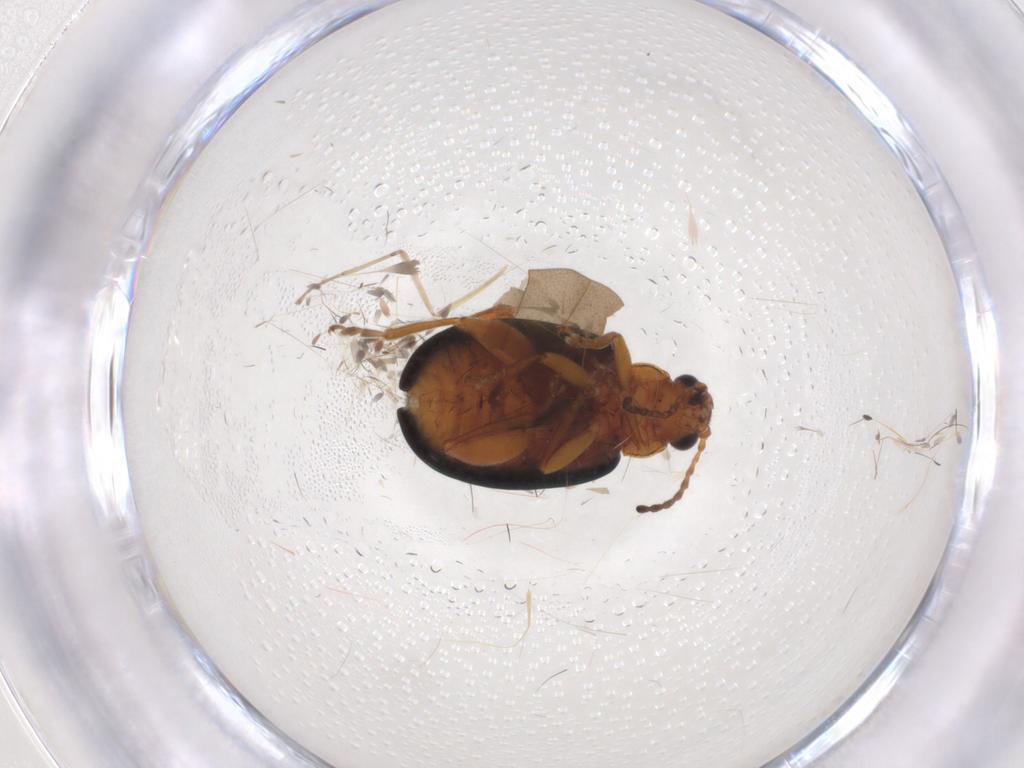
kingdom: Animalia
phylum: Arthropoda
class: Insecta
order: Coleoptera
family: Chrysomelidae
